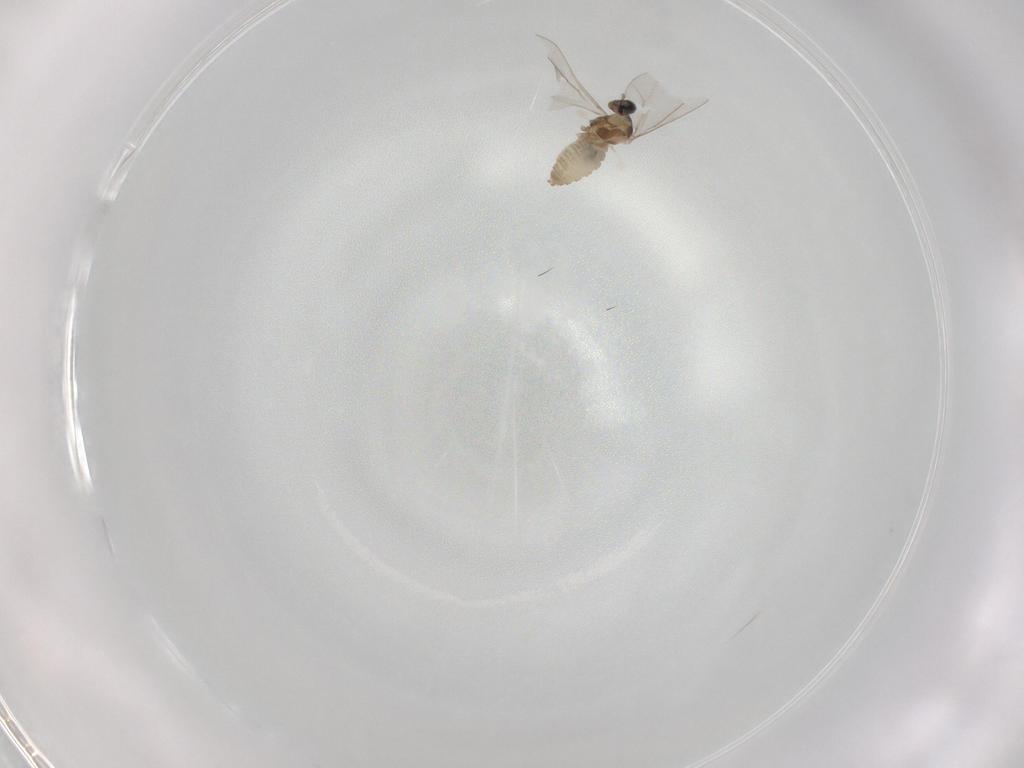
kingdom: Animalia
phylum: Arthropoda
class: Insecta
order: Diptera
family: Cecidomyiidae
